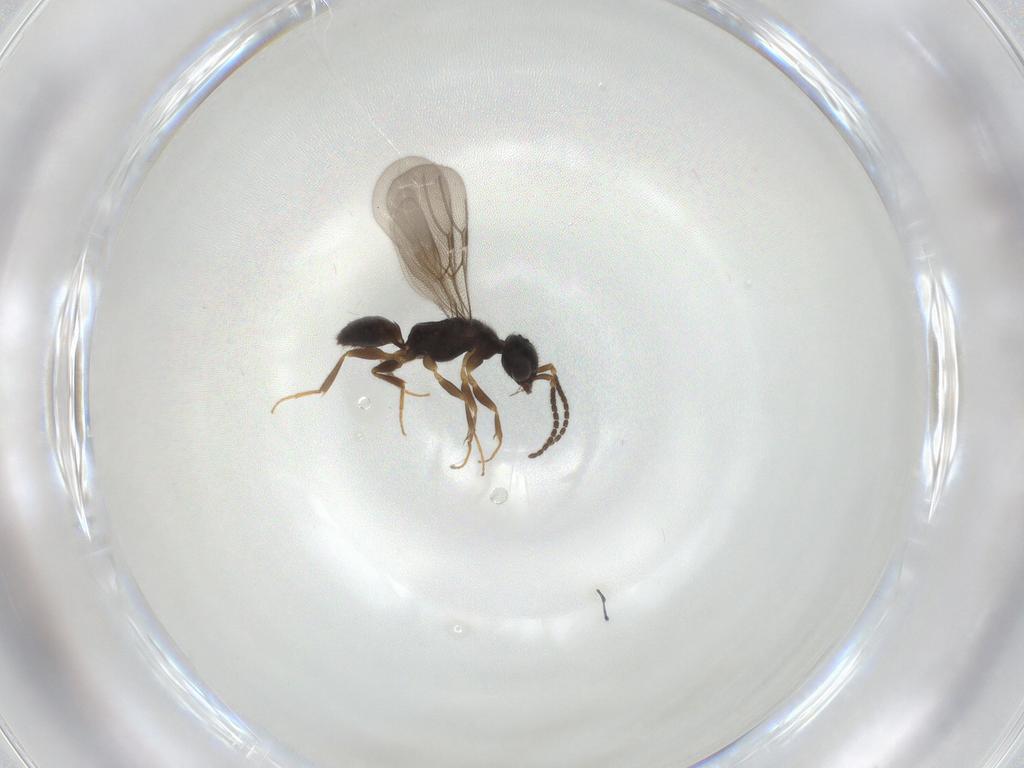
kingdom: Animalia
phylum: Arthropoda
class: Insecta
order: Hymenoptera
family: Bethylidae
